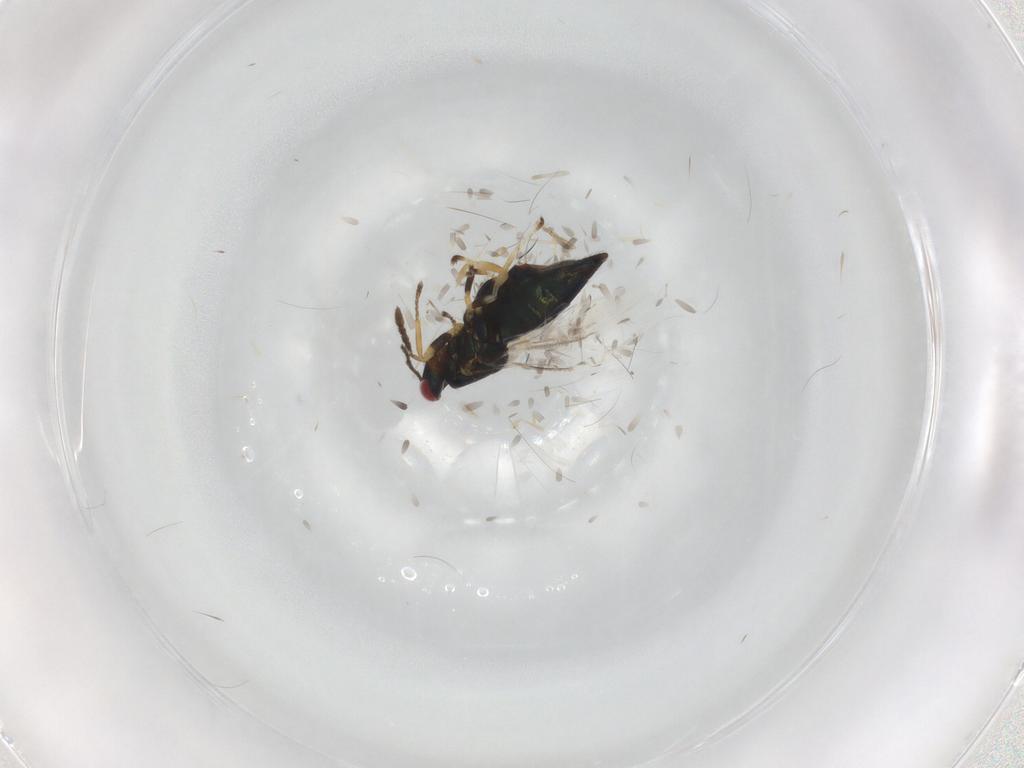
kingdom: Animalia
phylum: Arthropoda
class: Insecta
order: Hymenoptera
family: Eulophidae
